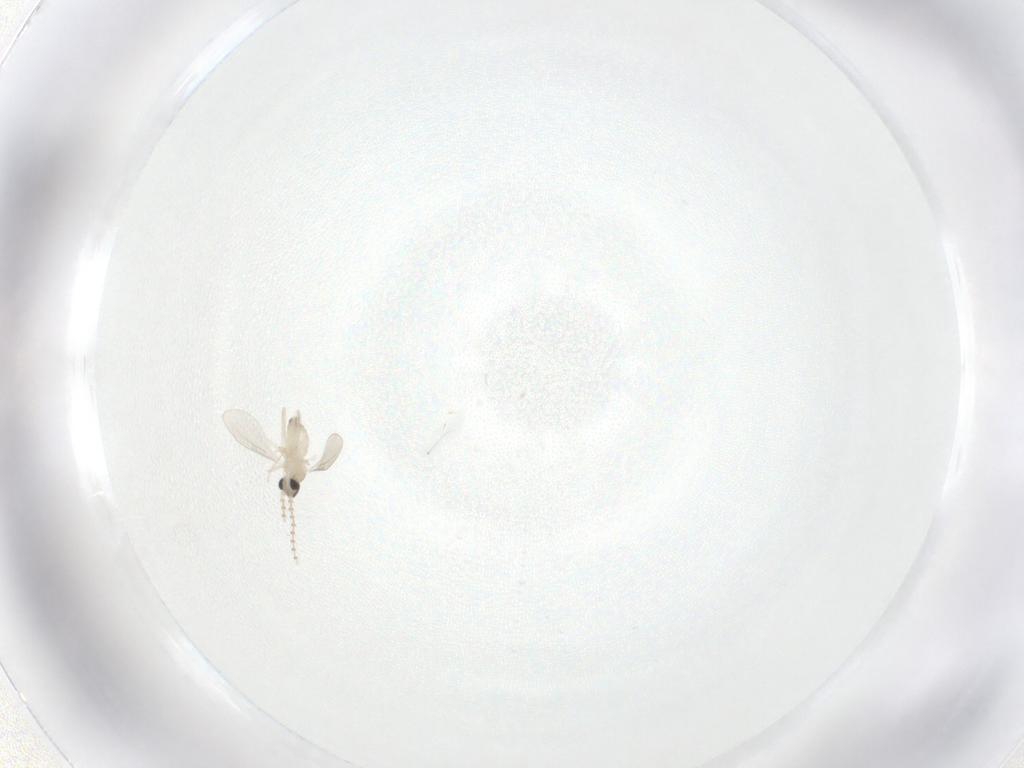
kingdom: Animalia
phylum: Arthropoda
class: Insecta
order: Diptera
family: Cecidomyiidae
